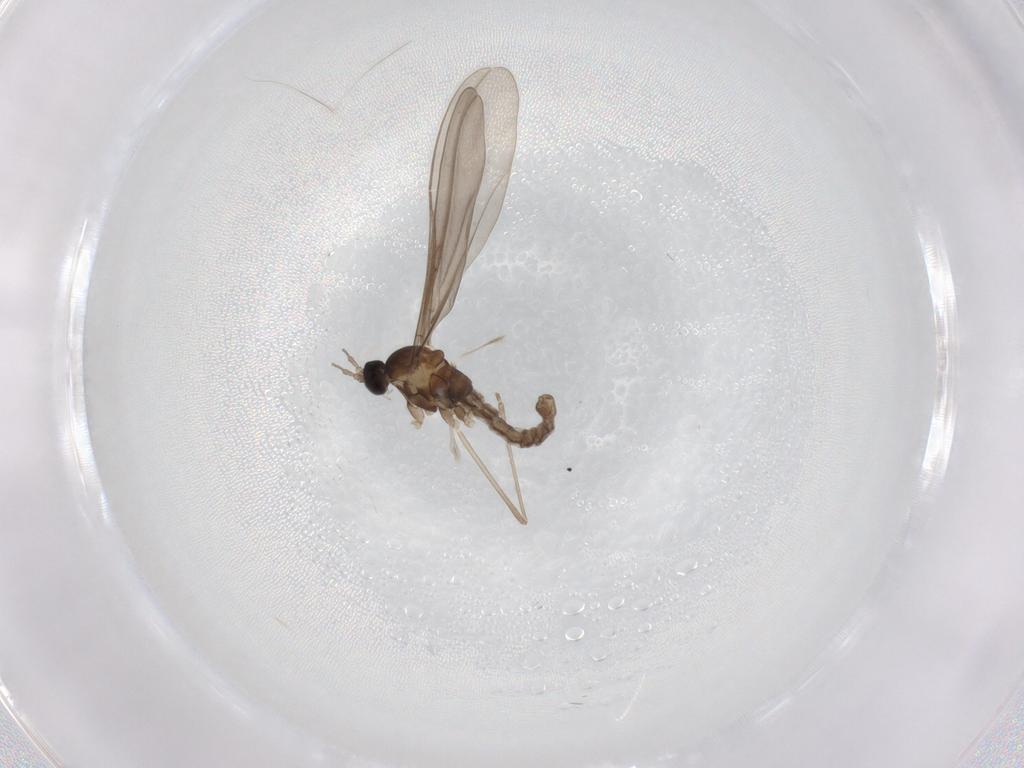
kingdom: Animalia
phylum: Arthropoda
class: Insecta
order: Diptera
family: Cecidomyiidae
